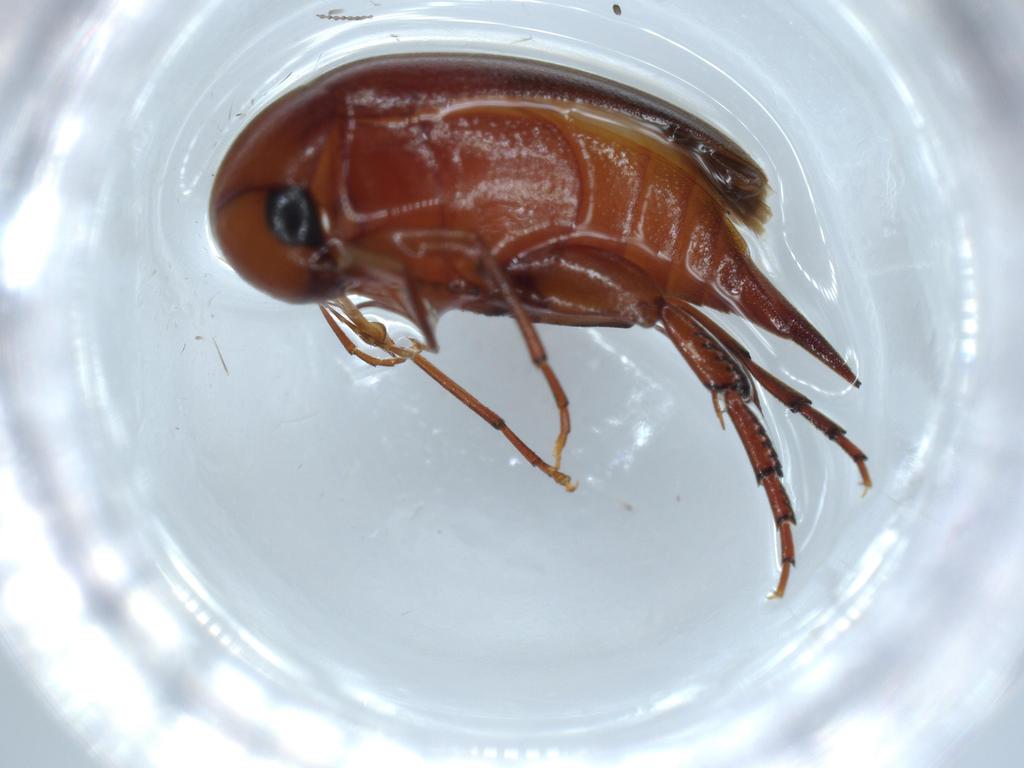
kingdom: Animalia
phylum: Arthropoda
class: Insecta
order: Coleoptera
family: Mordellidae
